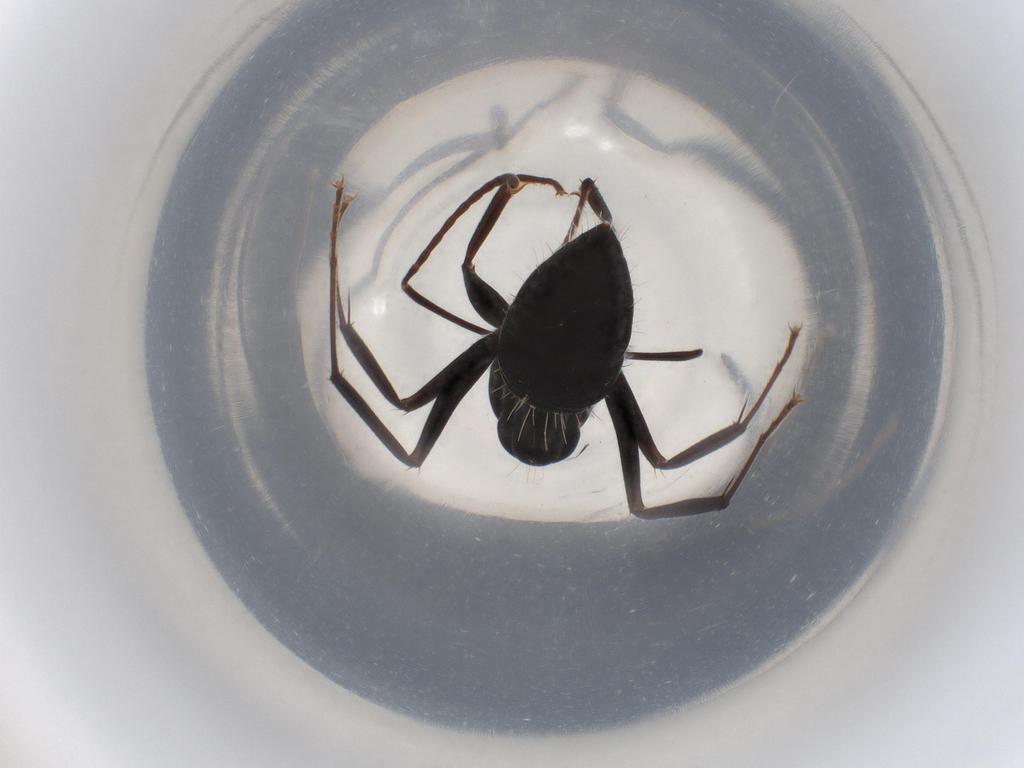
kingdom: Animalia
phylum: Arthropoda
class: Insecta
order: Hymenoptera
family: Formicidae
